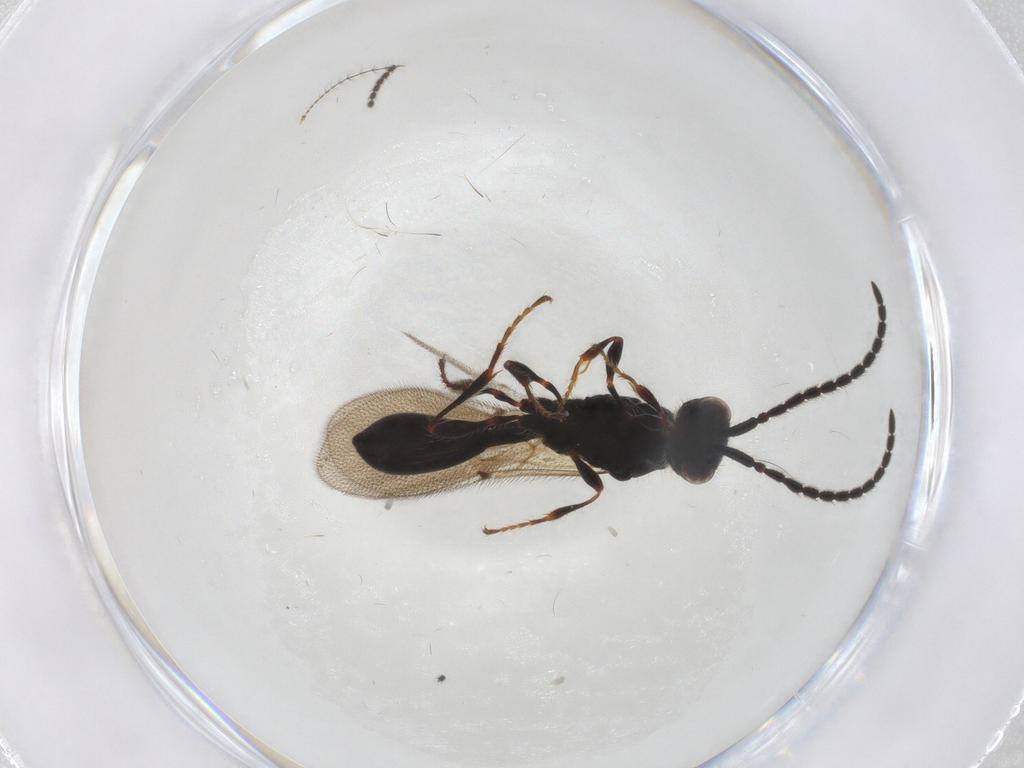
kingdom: Animalia
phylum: Arthropoda
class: Insecta
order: Hymenoptera
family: Diapriidae
